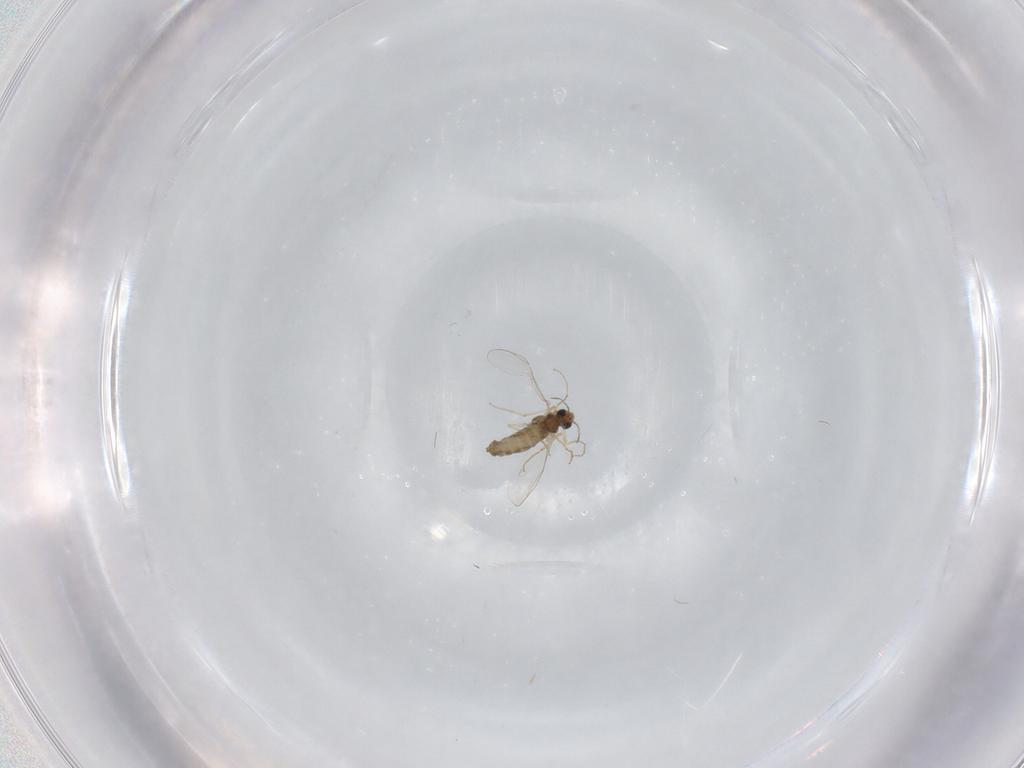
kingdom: Animalia
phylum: Arthropoda
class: Insecta
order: Diptera
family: Chironomidae
